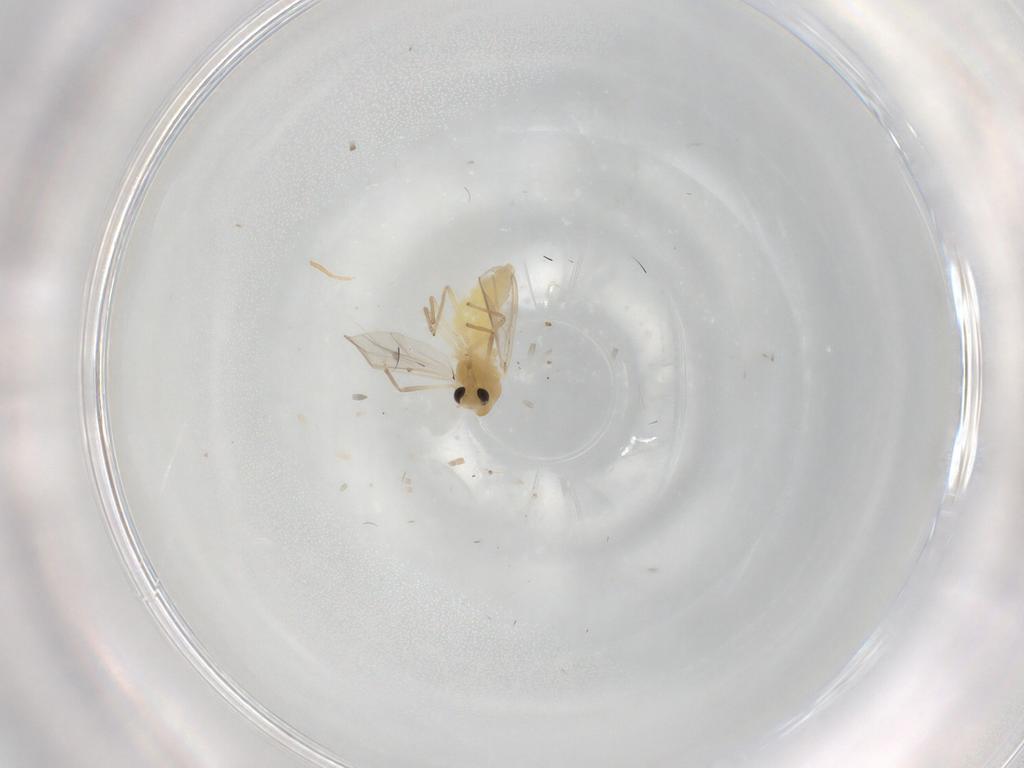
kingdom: Animalia
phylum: Arthropoda
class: Insecta
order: Diptera
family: Chironomidae
